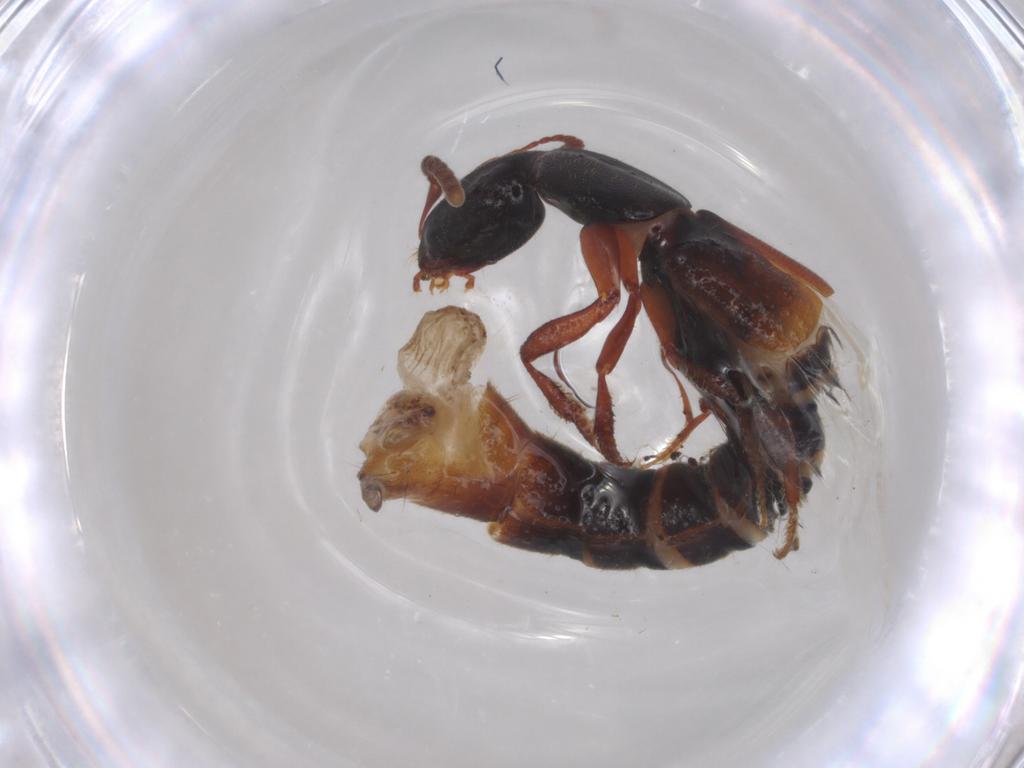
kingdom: Animalia
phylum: Arthropoda
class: Insecta
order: Coleoptera
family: Staphylinidae
